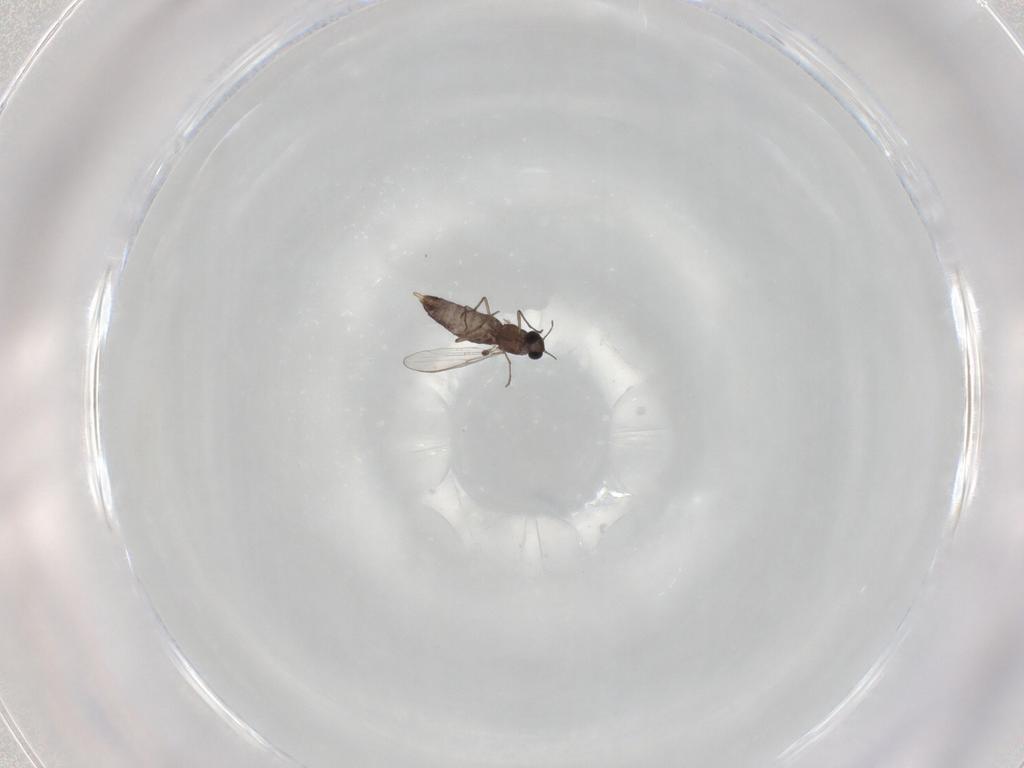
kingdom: Animalia
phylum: Arthropoda
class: Insecta
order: Diptera
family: Chironomidae
